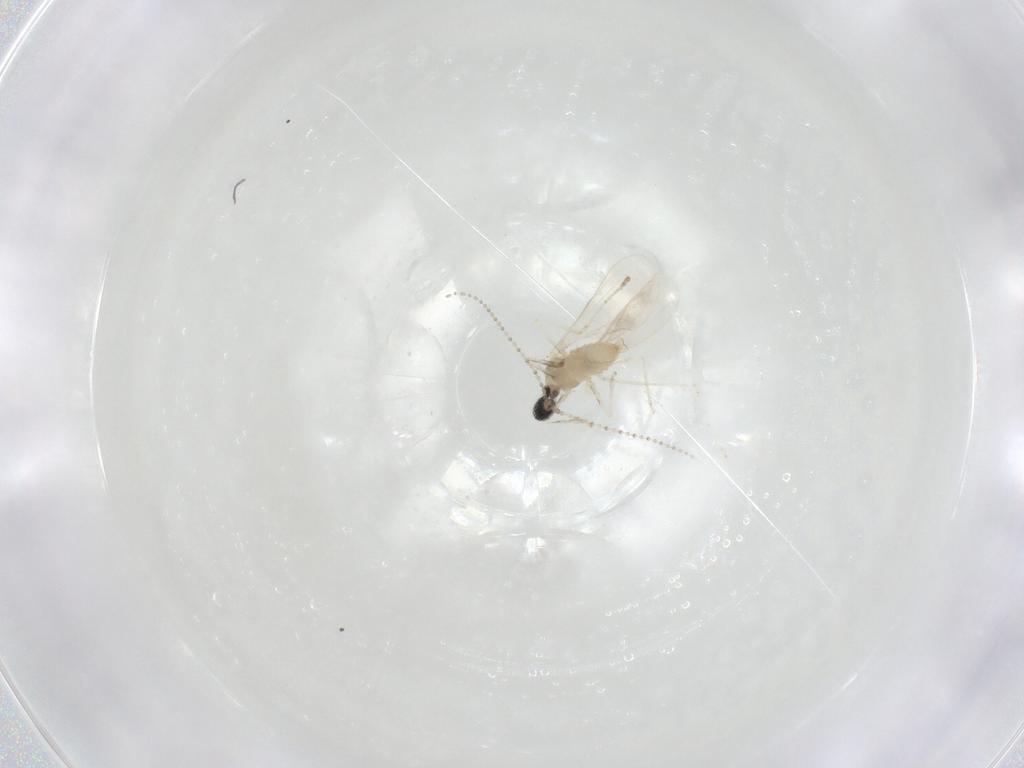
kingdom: Animalia
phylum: Arthropoda
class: Insecta
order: Diptera
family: Cecidomyiidae
